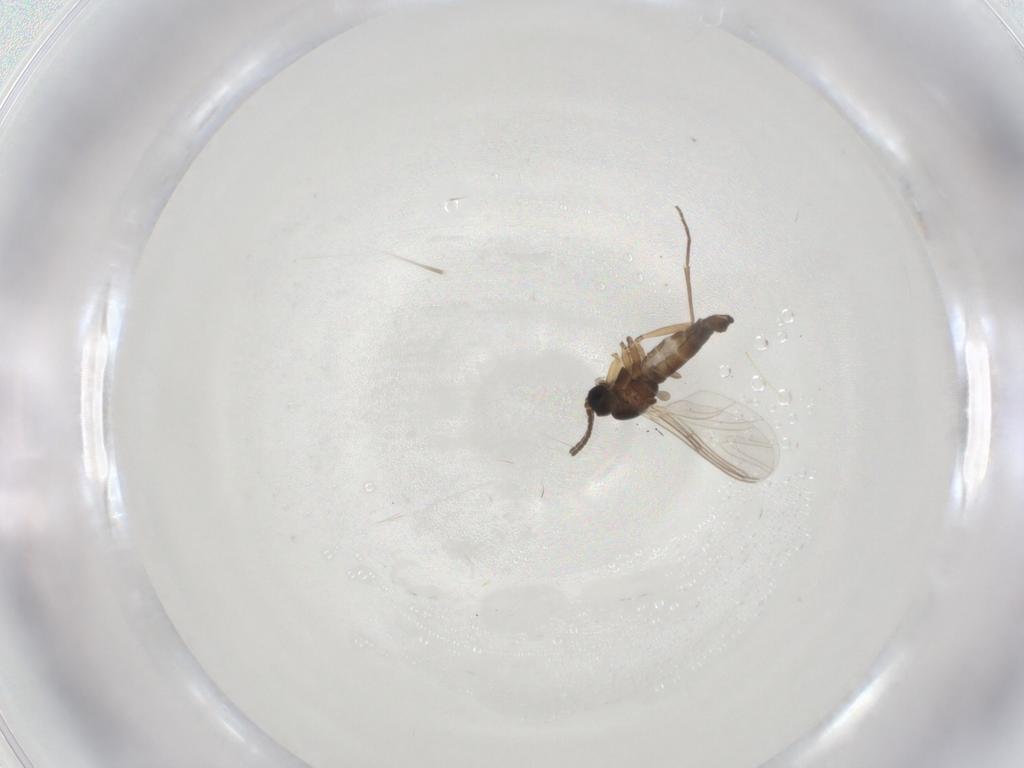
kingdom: Animalia
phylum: Arthropoda
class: Insecta
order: Diptera
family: Sciaridae
